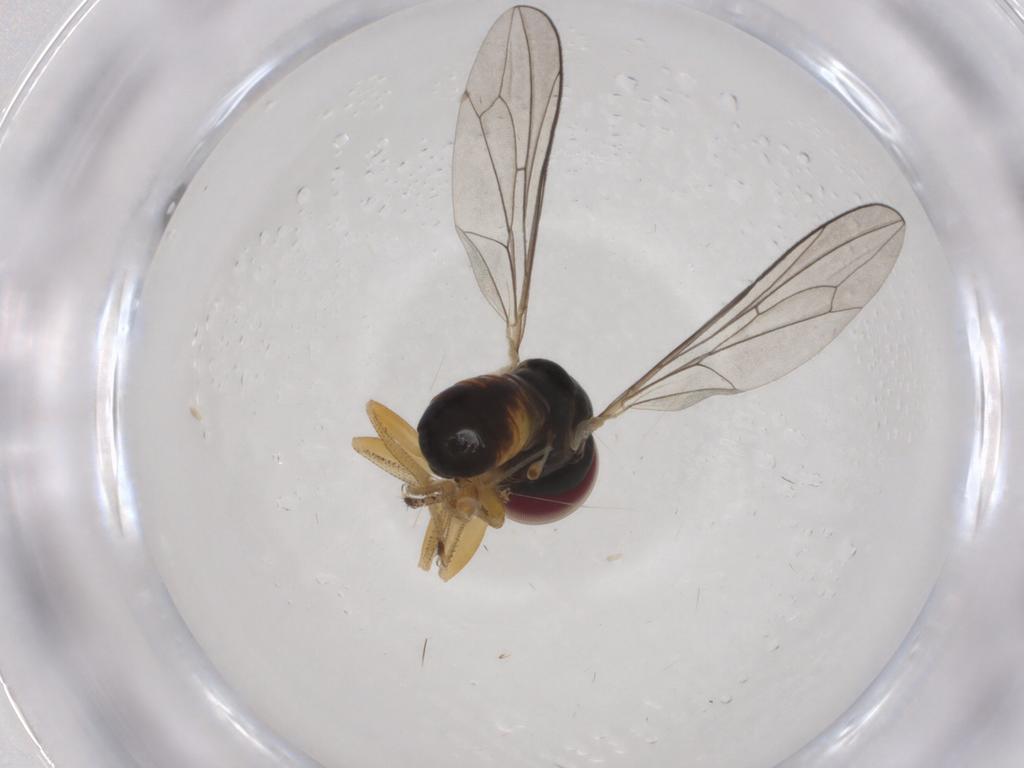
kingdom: Animalia
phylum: Arthropoda
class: Insecta
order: Diptera
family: Pipunculidae
